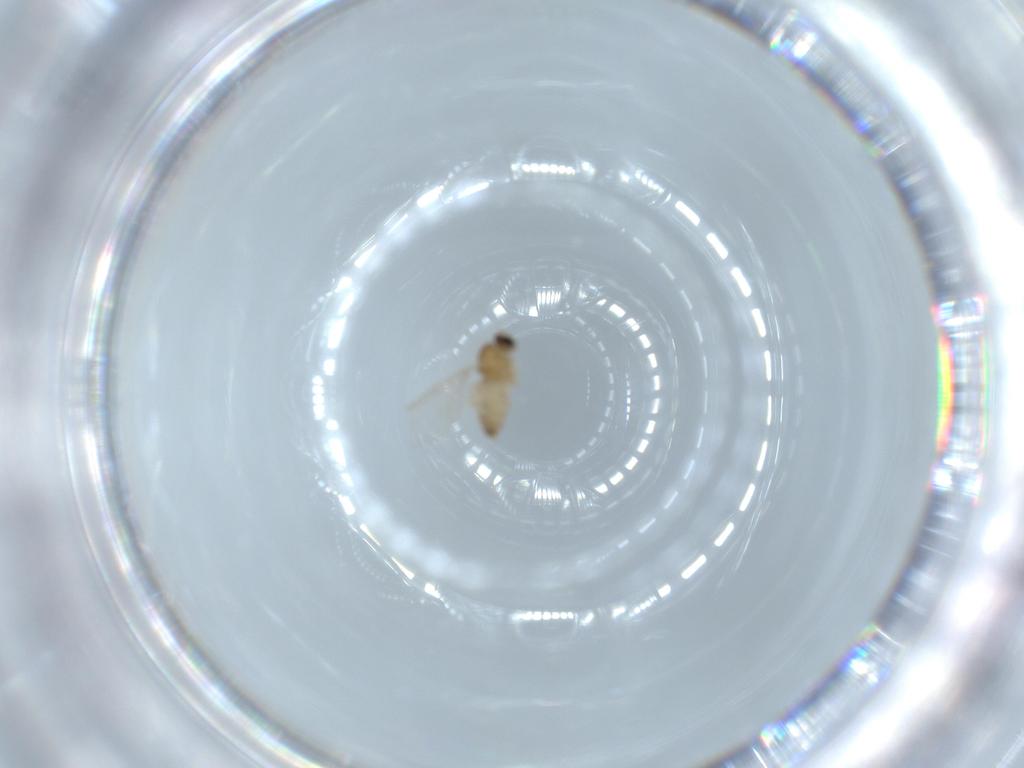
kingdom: Animalia
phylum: Arthropoda
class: Insecta
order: Diptera
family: Cecidomyiidae
